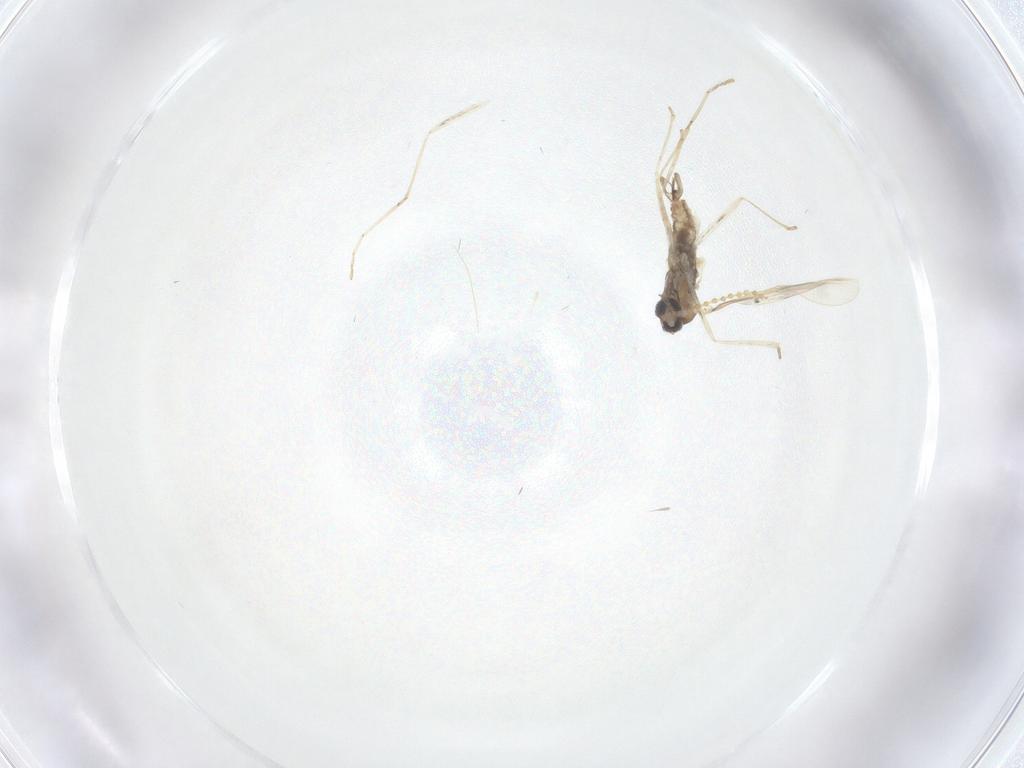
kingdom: Animalia
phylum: Arthropoda
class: Insecta
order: Diptera
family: Cecidomyiidae
